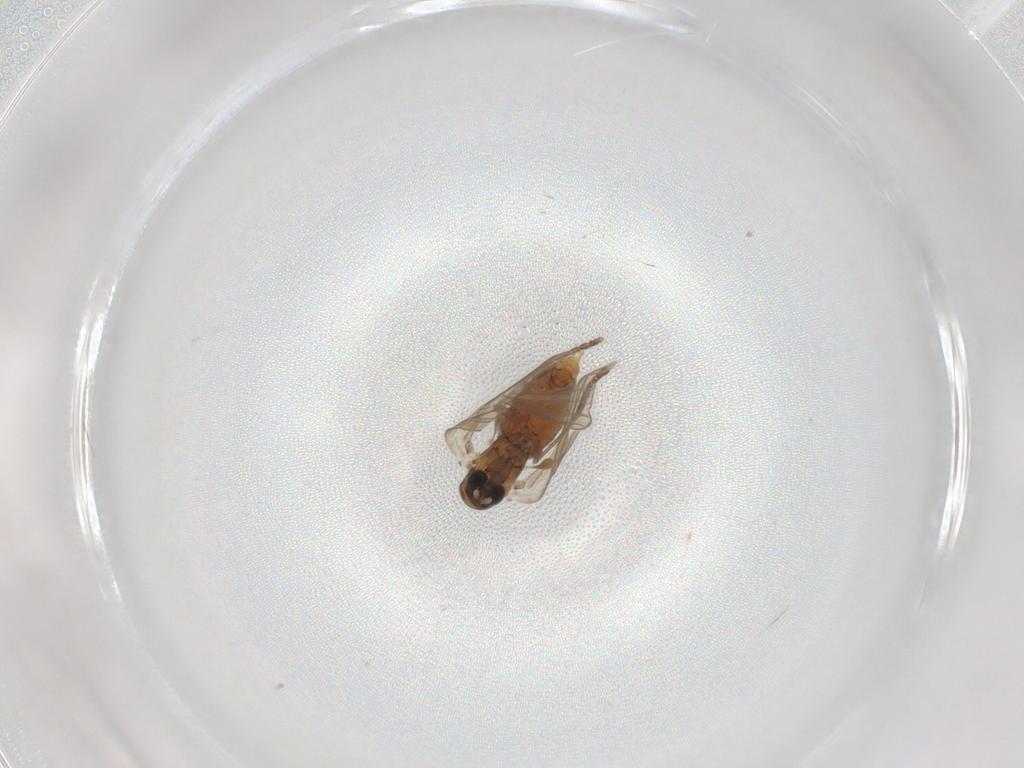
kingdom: Animalia
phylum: Arthropoda
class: Insecta
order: Diptera
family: Psychodidae
